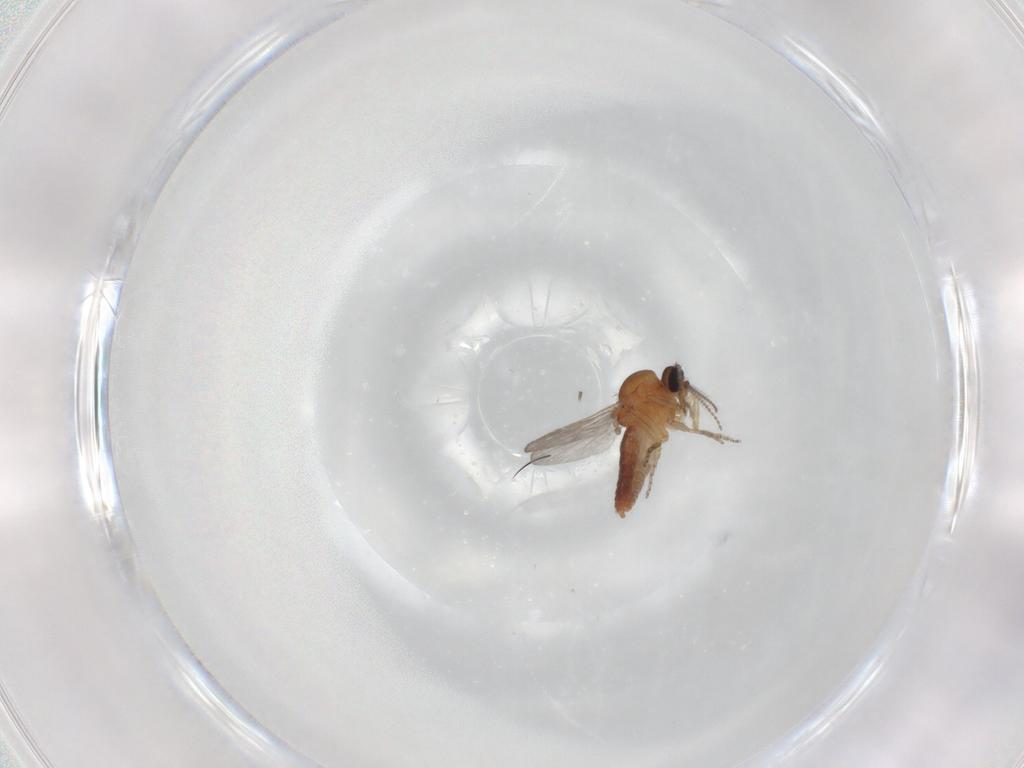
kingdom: Animalia
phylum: Arthropoda
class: Insecta
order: Diptera
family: Ceratopogonidae
